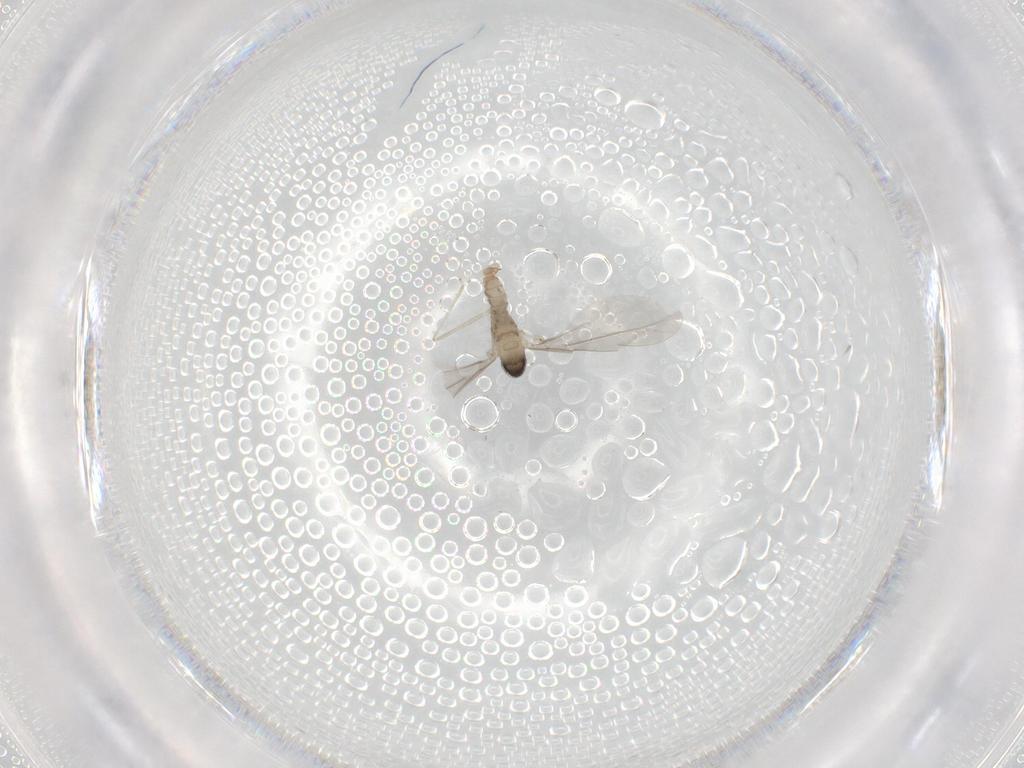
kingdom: Animalia
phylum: Arthropoda
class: Insecta
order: Diptera
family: Cecidomyiidae
